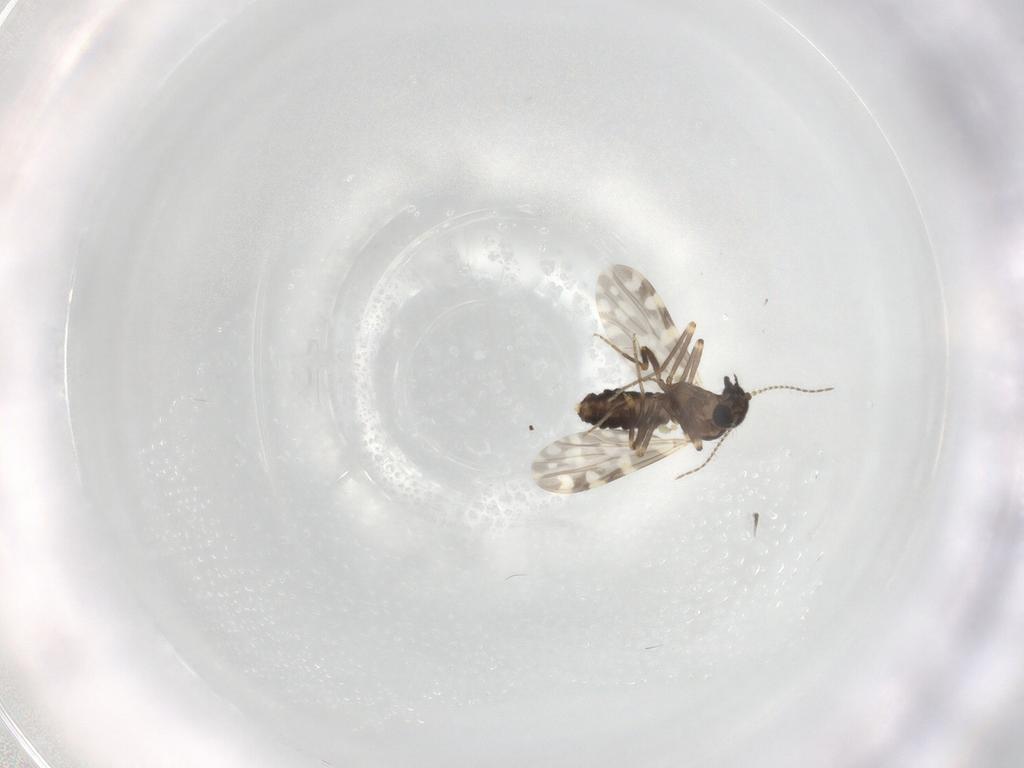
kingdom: Animalia
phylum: Arthropoda
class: Insecta
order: Diptera
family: Ceratopogonidae
